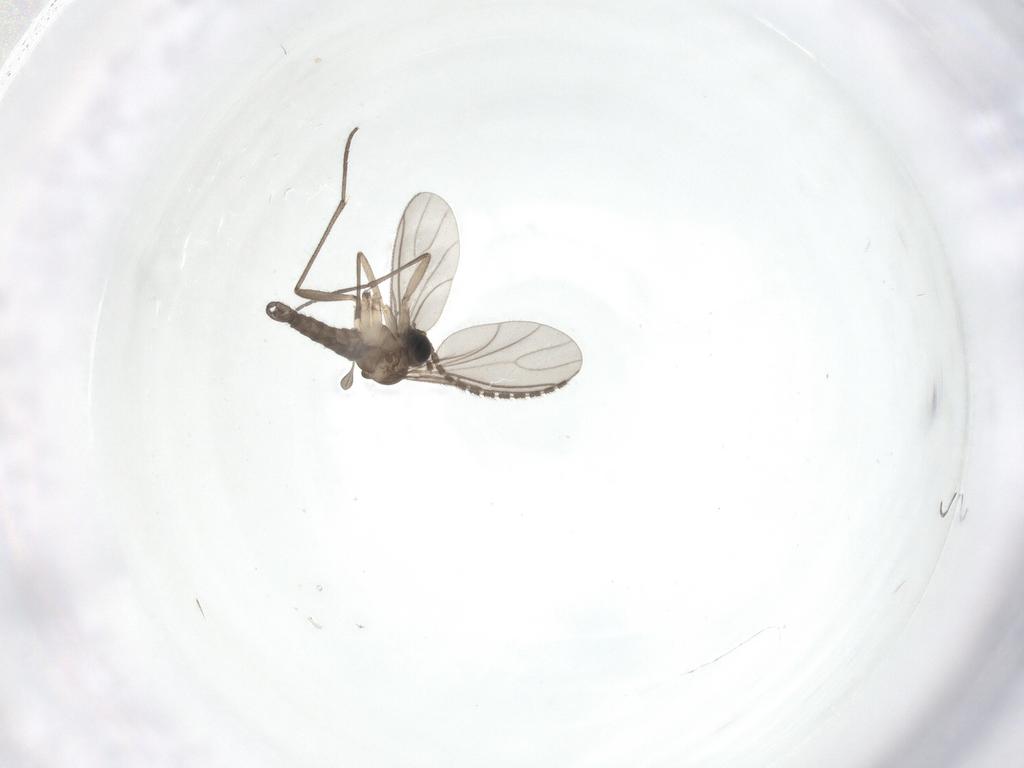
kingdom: Animalia
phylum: Arthropoda
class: Insecta
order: Diptera
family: Sciaridae
